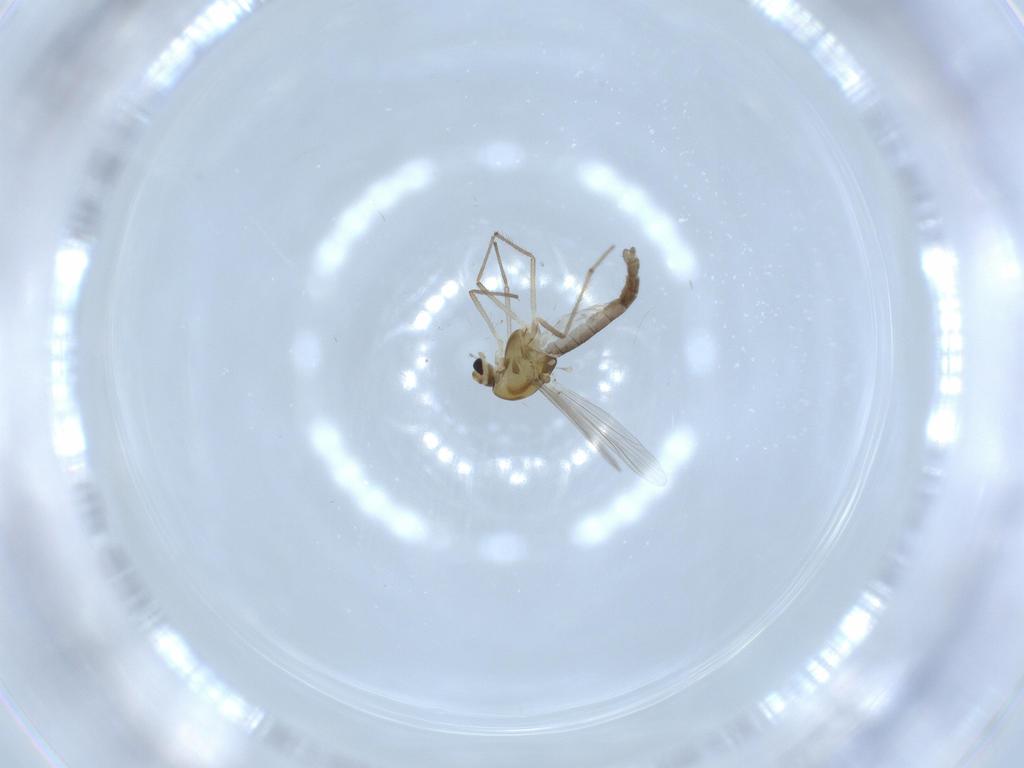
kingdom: Animalia
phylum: Arthropoda
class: Insecta
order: Diptera
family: Chironomidae
